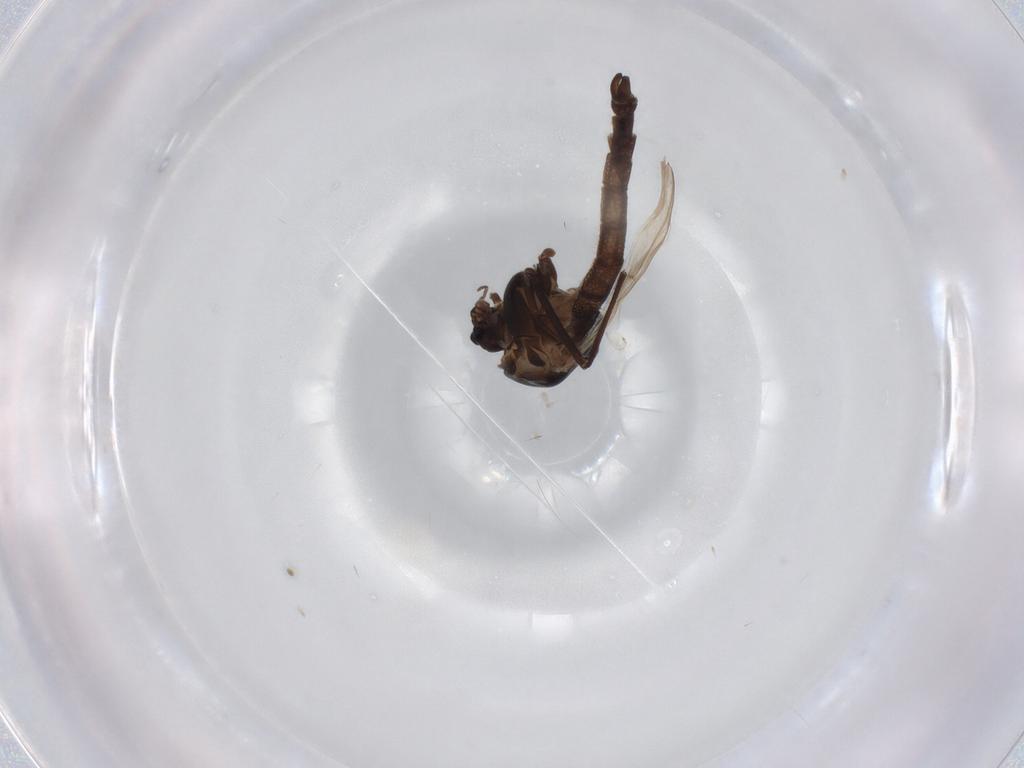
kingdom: Animalia
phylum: Arthropoda
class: Insecta
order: Diptera
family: Chironomidae
